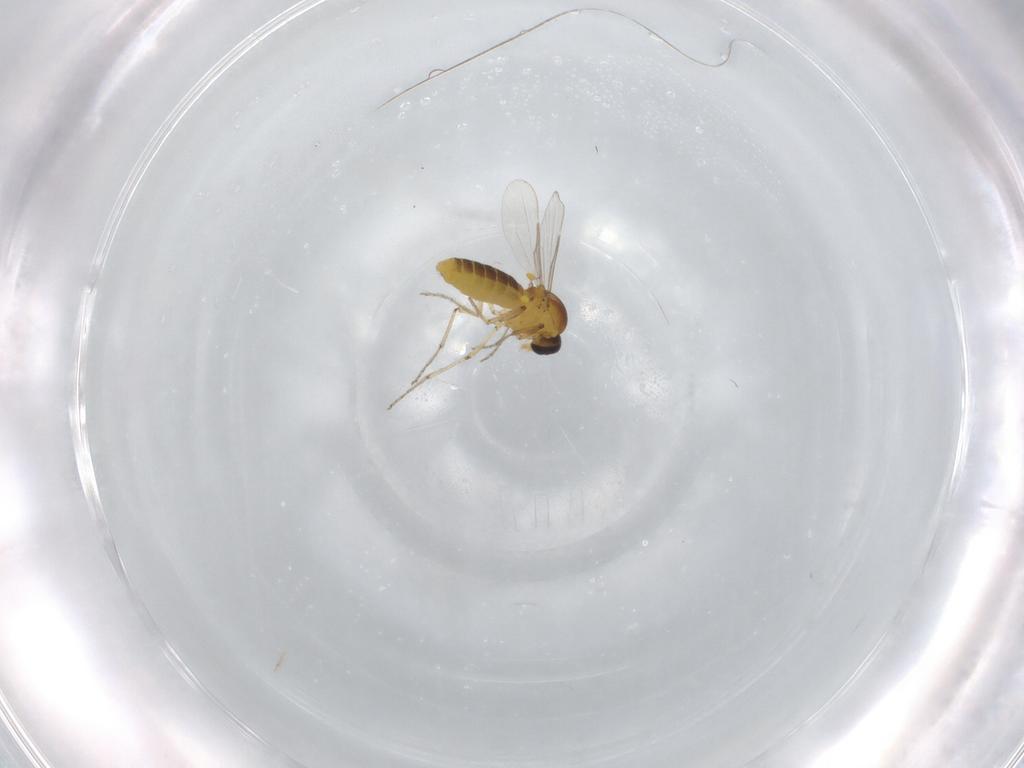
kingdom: Animalia
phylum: Arthropoda
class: Insecta
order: Diptera
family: Ceratopogonidae
